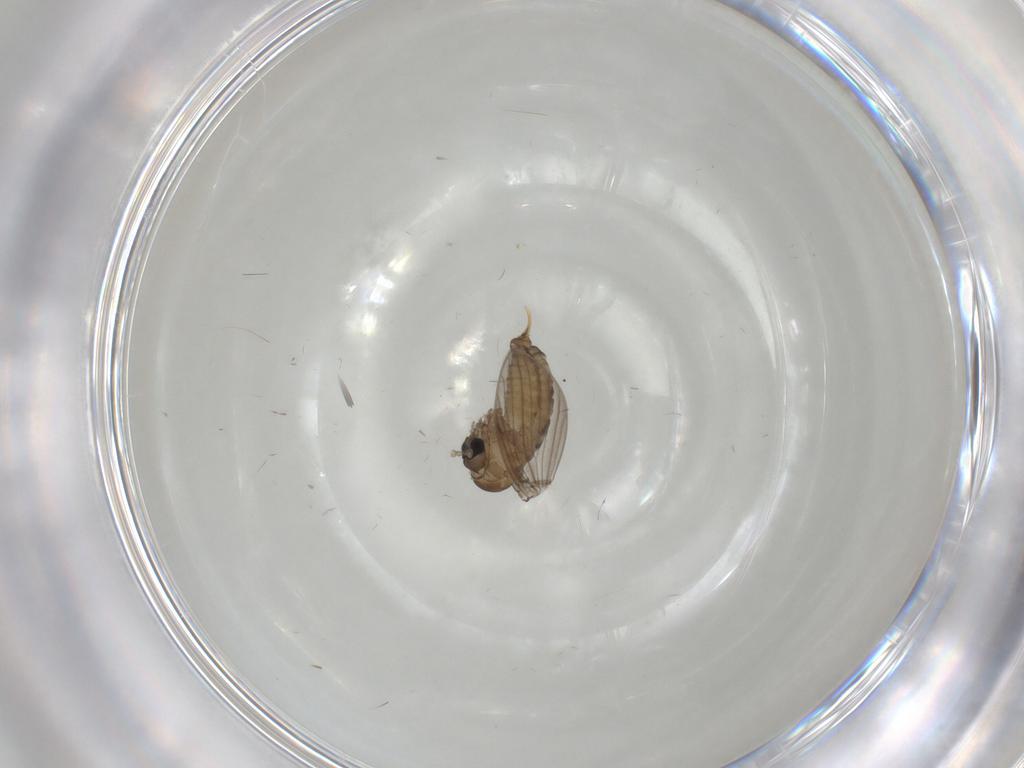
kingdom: Animalia
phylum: Arthropoda
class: Insecta
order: Diptera
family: Psychodidae
